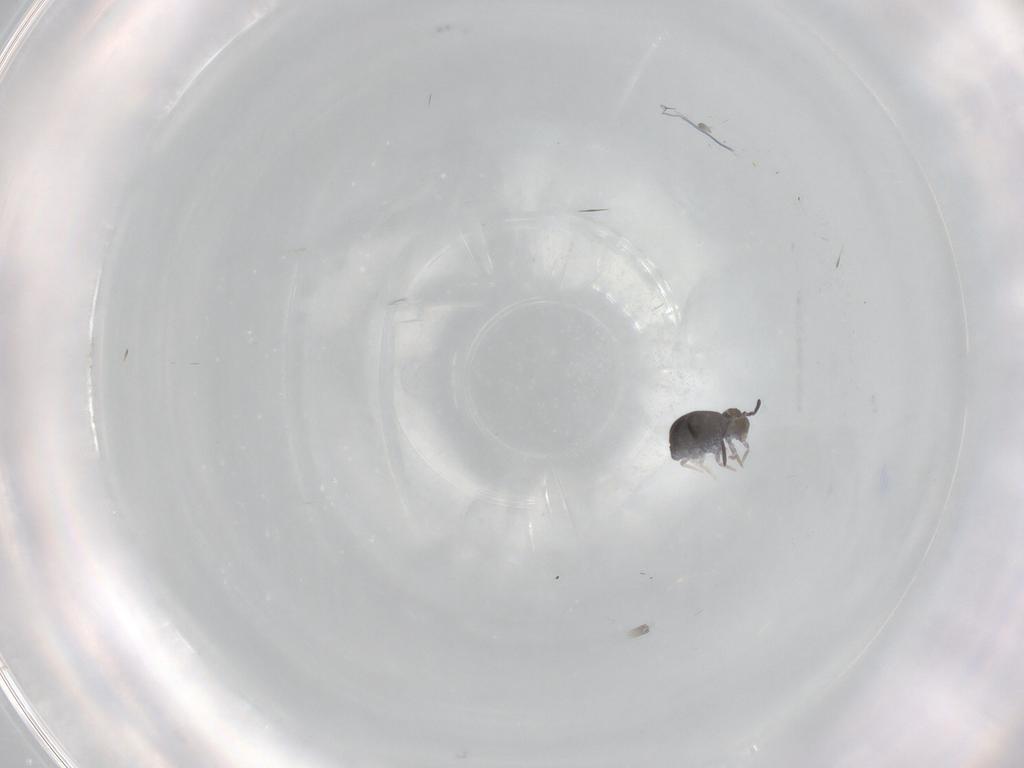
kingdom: Animalia
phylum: Arthropoda
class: Collembola
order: Symphypleona
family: Katiannidae
